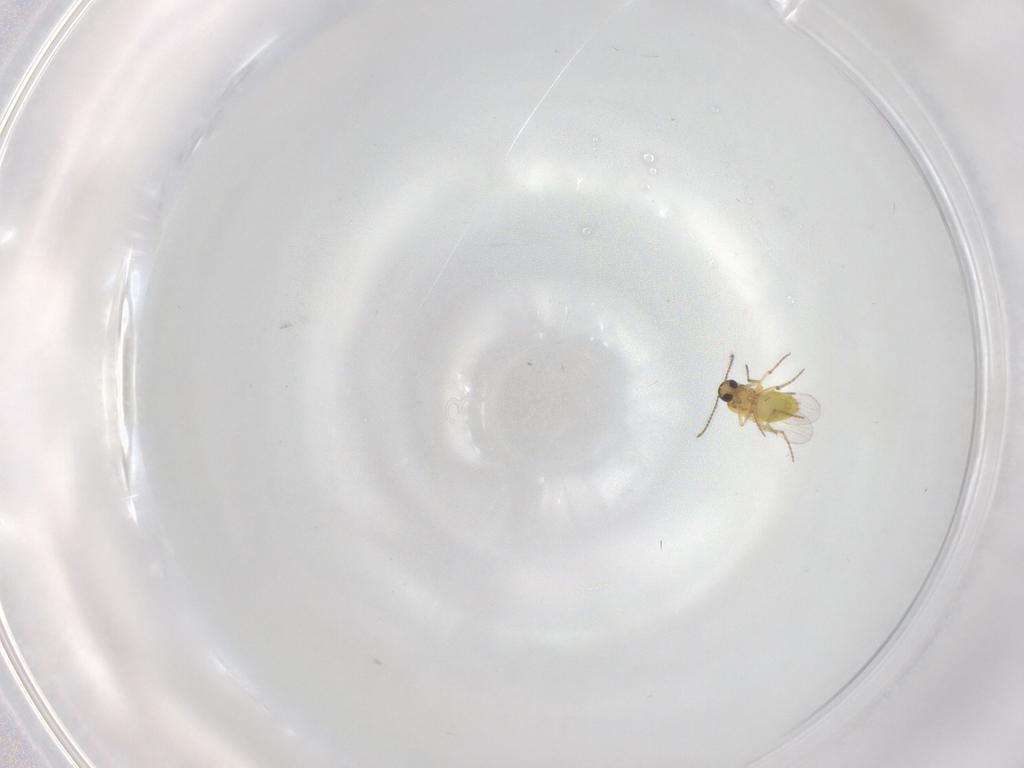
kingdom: Animalia
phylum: Arthropoda
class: Insecta
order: Diptera
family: Ceratopogonidae
